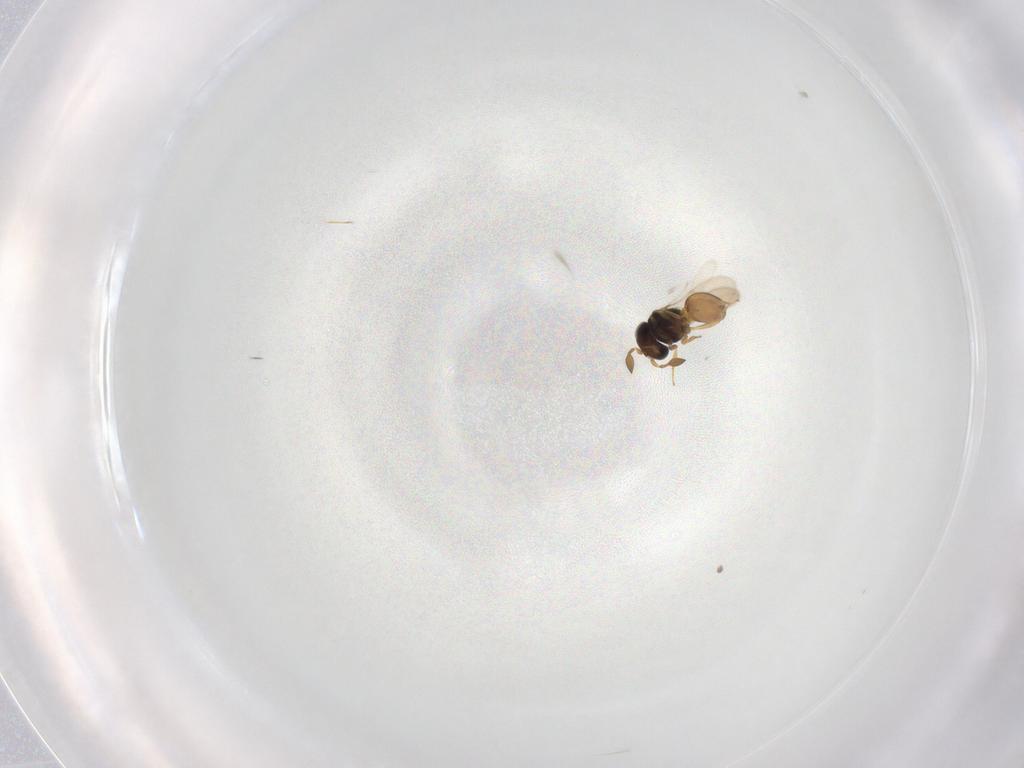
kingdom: Animalia
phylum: Arthropoda
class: Insecta
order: Hymenoptera
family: Scelionidae
